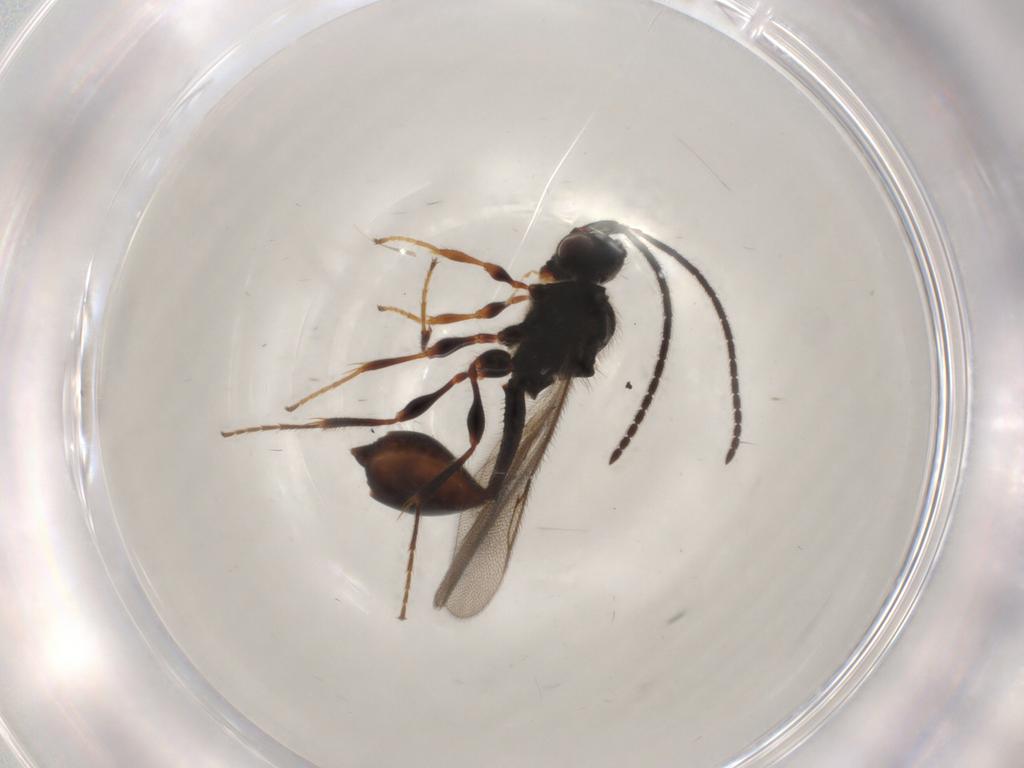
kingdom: Animalia
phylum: Arthropoda
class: Insecta
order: Hymenoptera
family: Diapriidae
